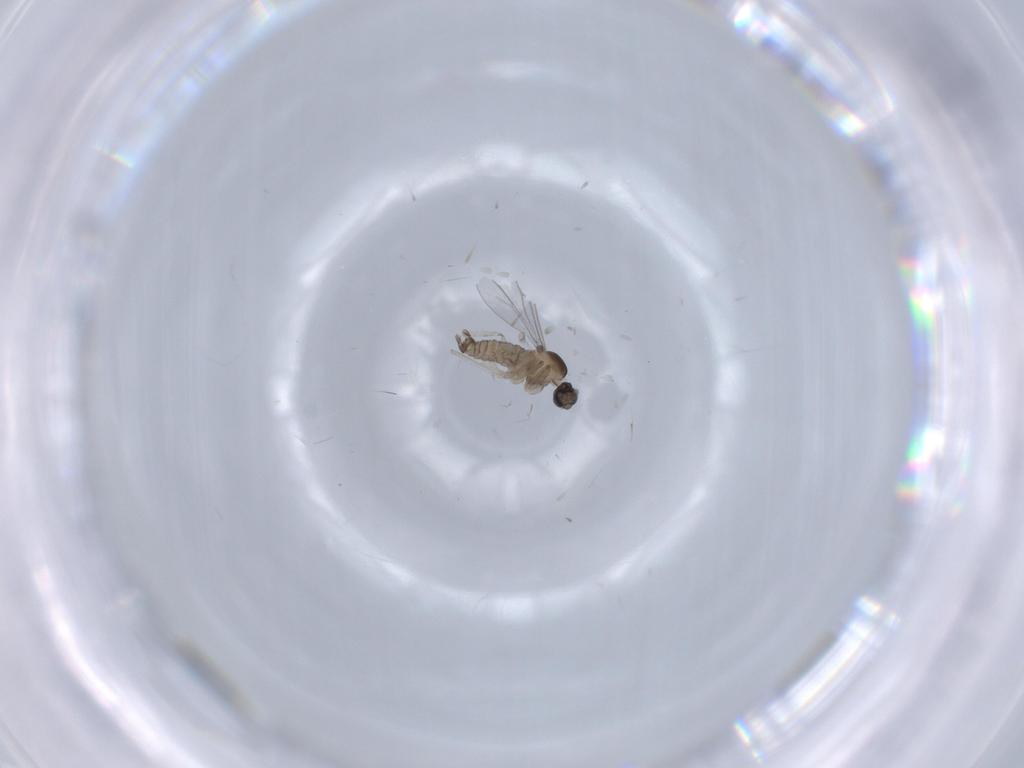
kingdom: Animalia
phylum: Arthropoda
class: Insecta
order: Diptera
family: Cecidomyiidae
